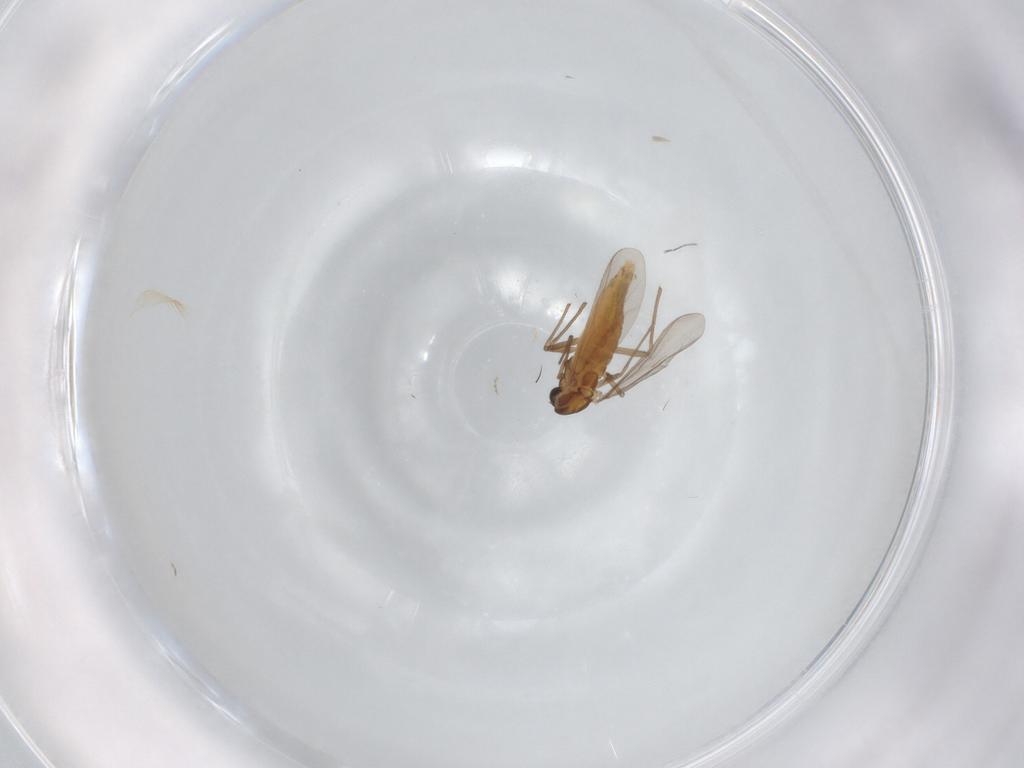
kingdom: Animalia
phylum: Arthropoda
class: Insecta
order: Diptera
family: Chironomidae
